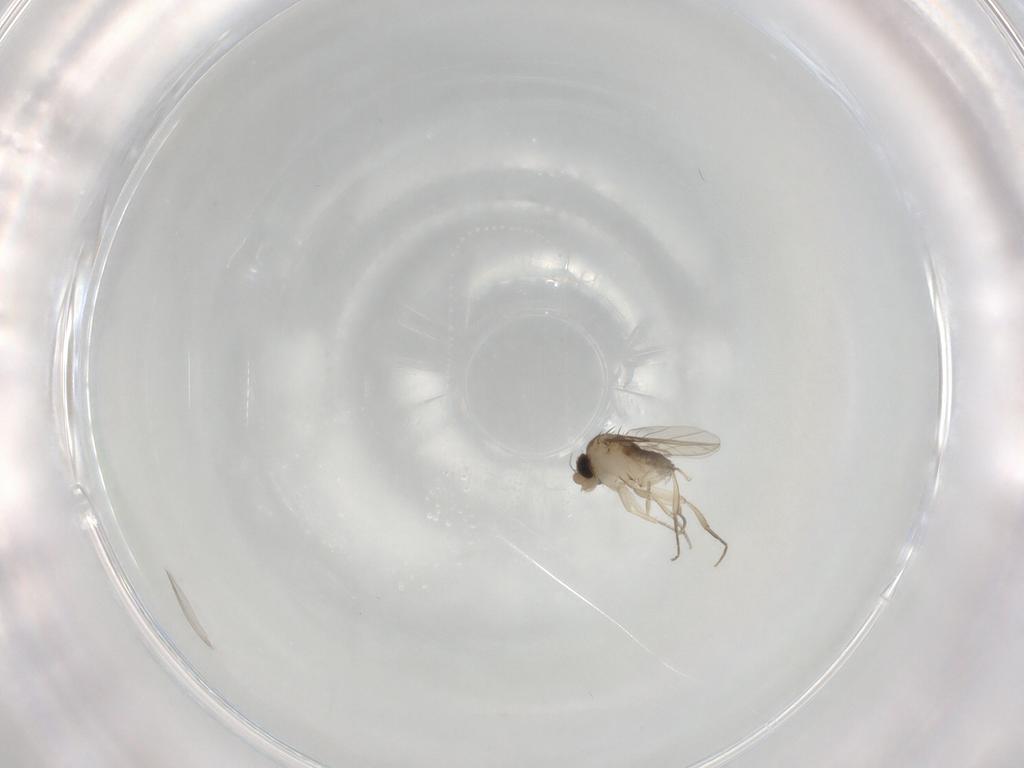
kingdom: Animalia
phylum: Arthropoda
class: Insecta
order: Diptera
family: Phoridae
